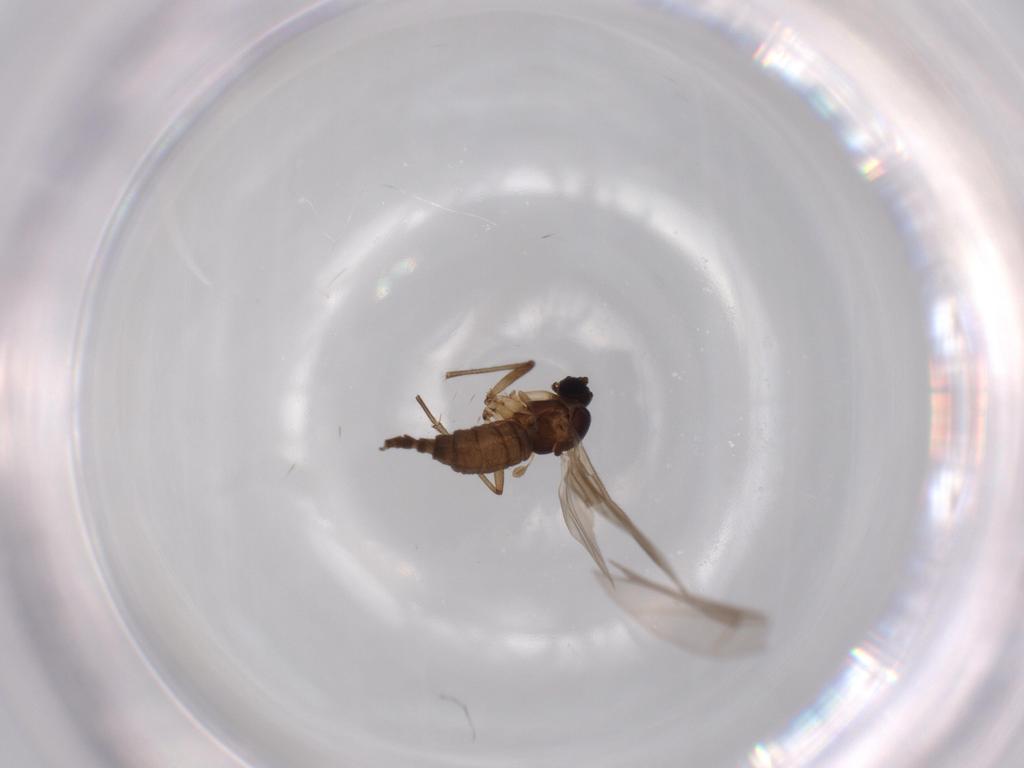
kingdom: Animalia
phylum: Arthropoda
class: Insecta
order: Diptera
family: Sciaridae
